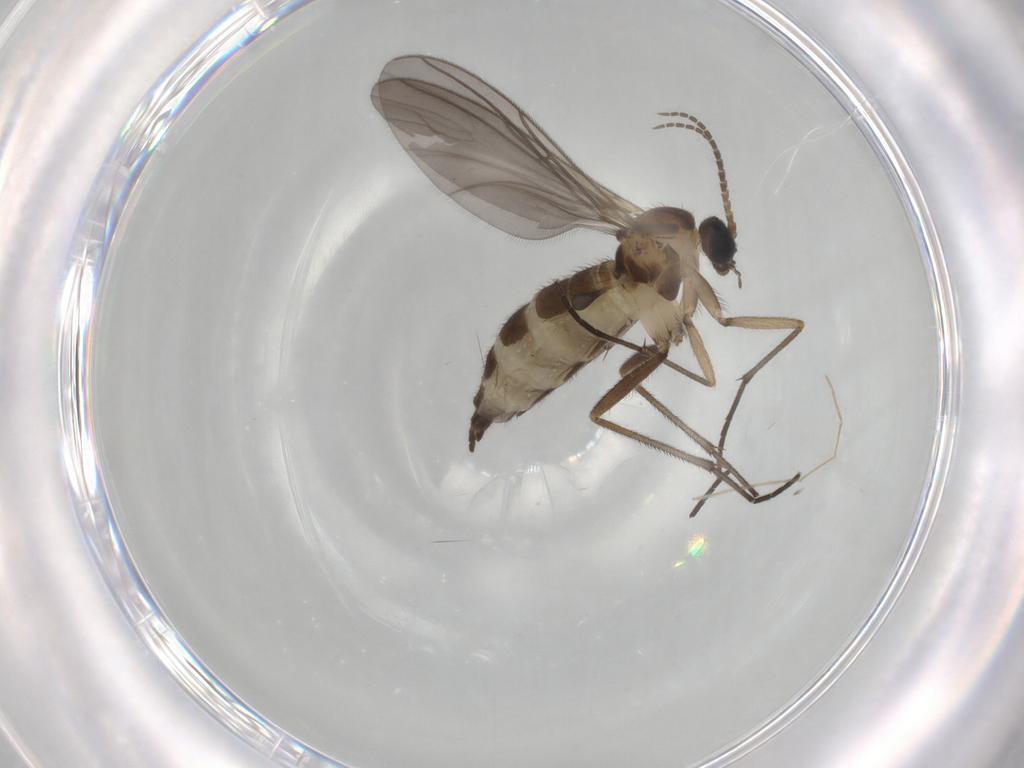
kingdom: Animalia
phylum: Arthropoda
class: Insecta
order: Diptera
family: Sciaridae
